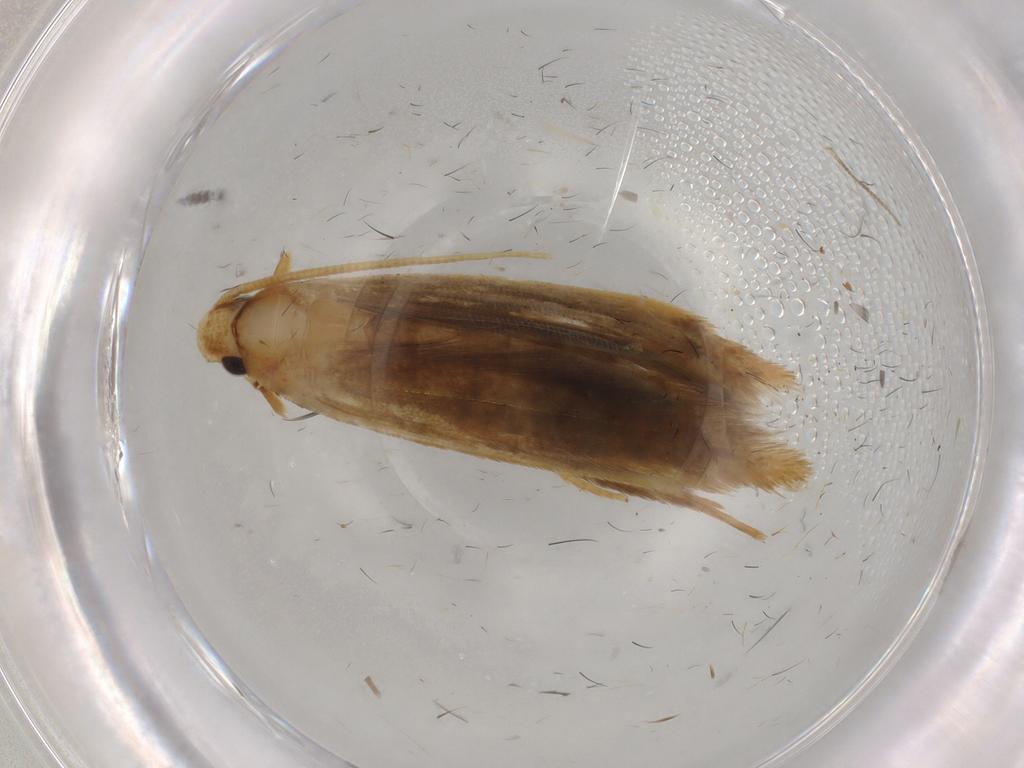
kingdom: Animalia
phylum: Arthropoda
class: Insecta
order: Lepidoptera
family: Tineidae
